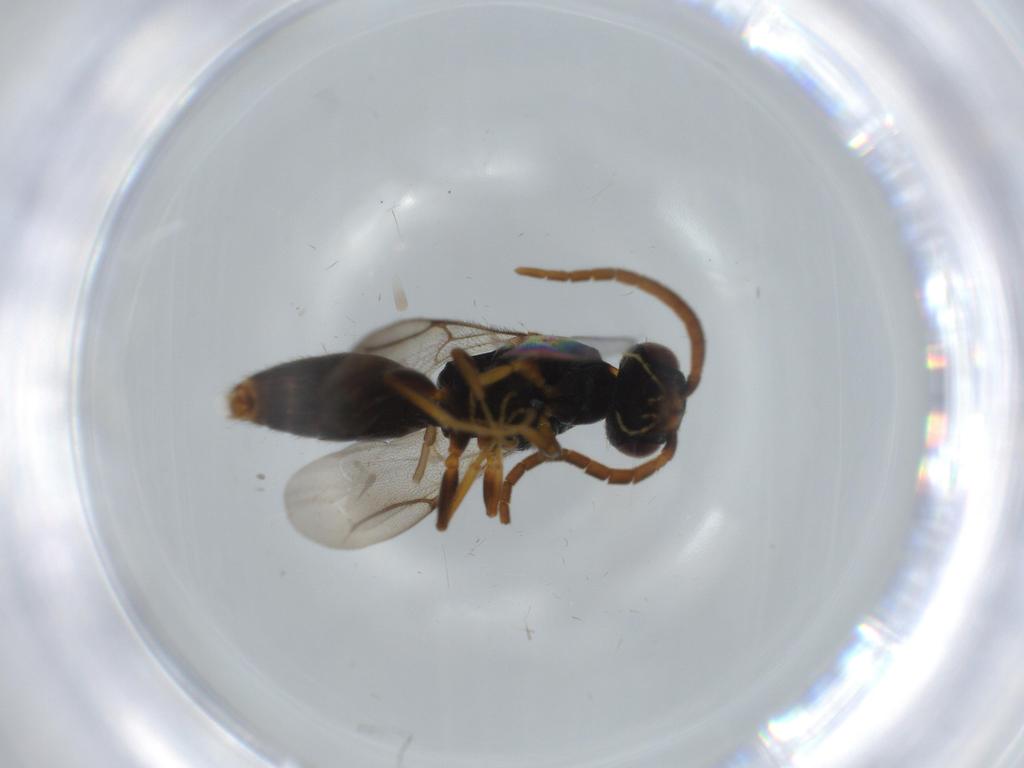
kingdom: Animalia
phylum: Arthropoda
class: Insecta
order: Hymenoptera
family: Bethylidae
